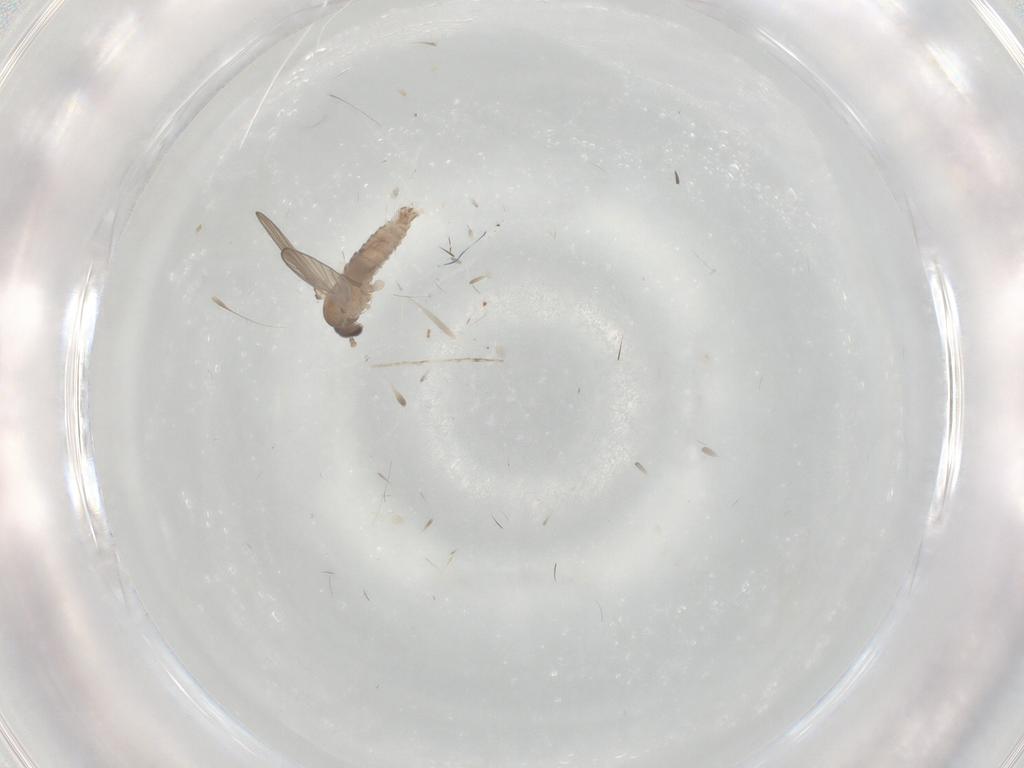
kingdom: Animalia
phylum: Arthropoda
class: Insecta
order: Diptera
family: Psychodidae
